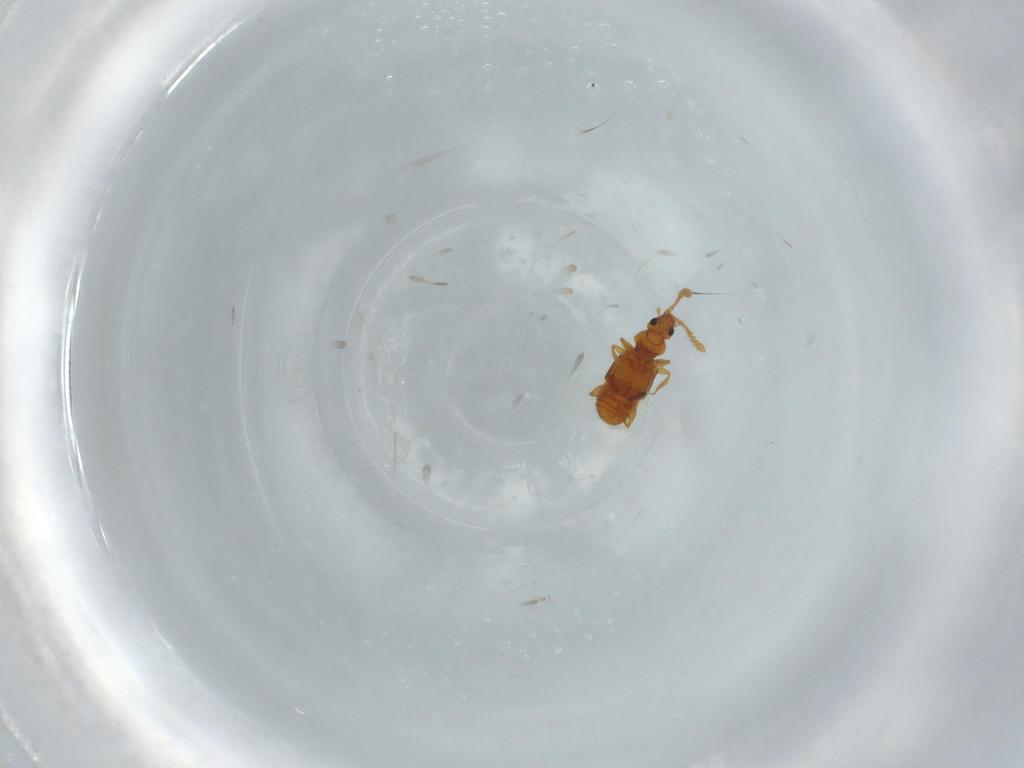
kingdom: Animalia
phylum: Arthropoda
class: Insecta
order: Coleoptera
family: Staphylinidae
